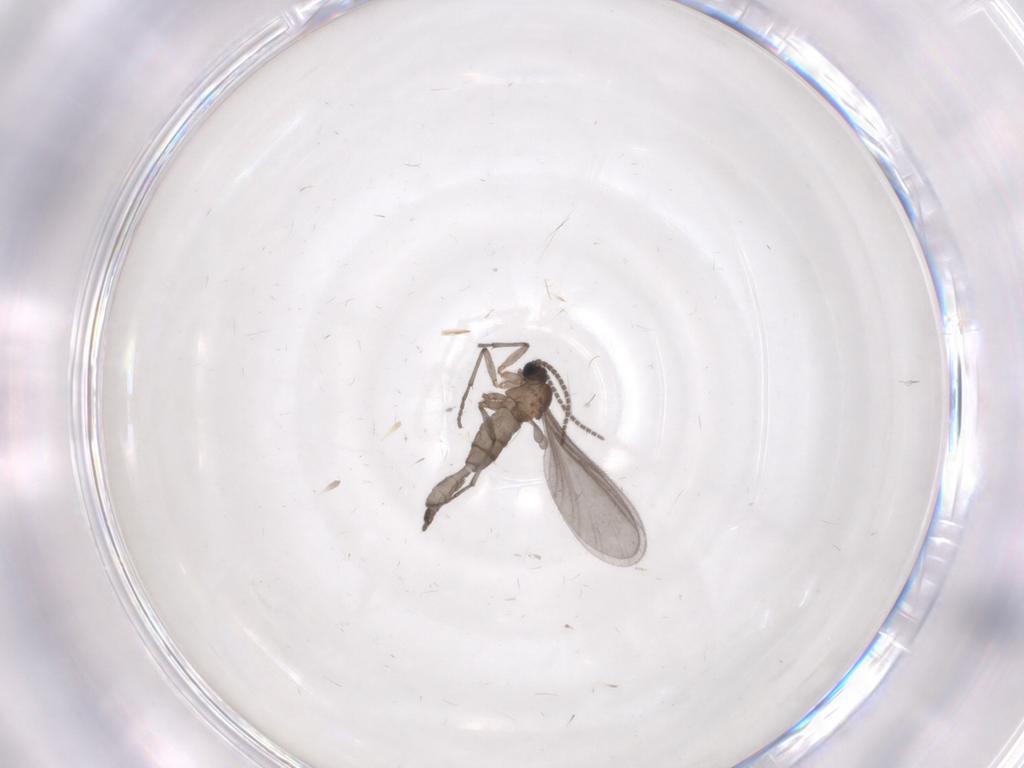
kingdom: Animalia
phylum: Arthropoda
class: Insecta
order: Diptera
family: Sciaridae
